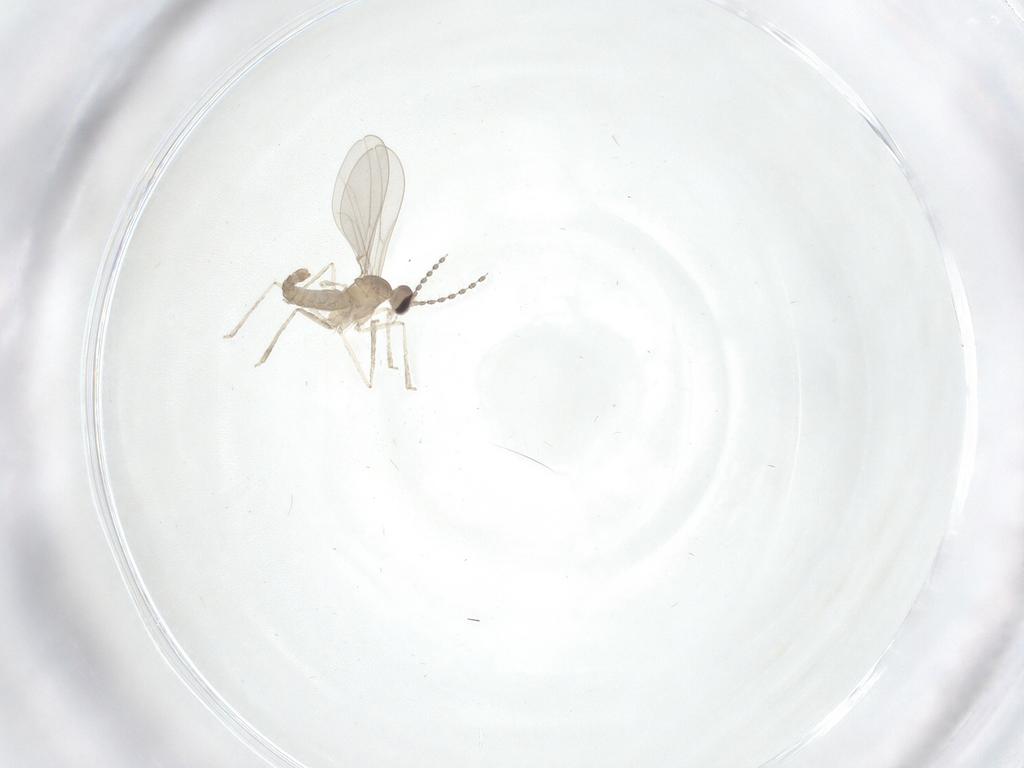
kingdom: Animalia
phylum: Arthropoda
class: Insecta
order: Diptera
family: Cecidomyiidae
